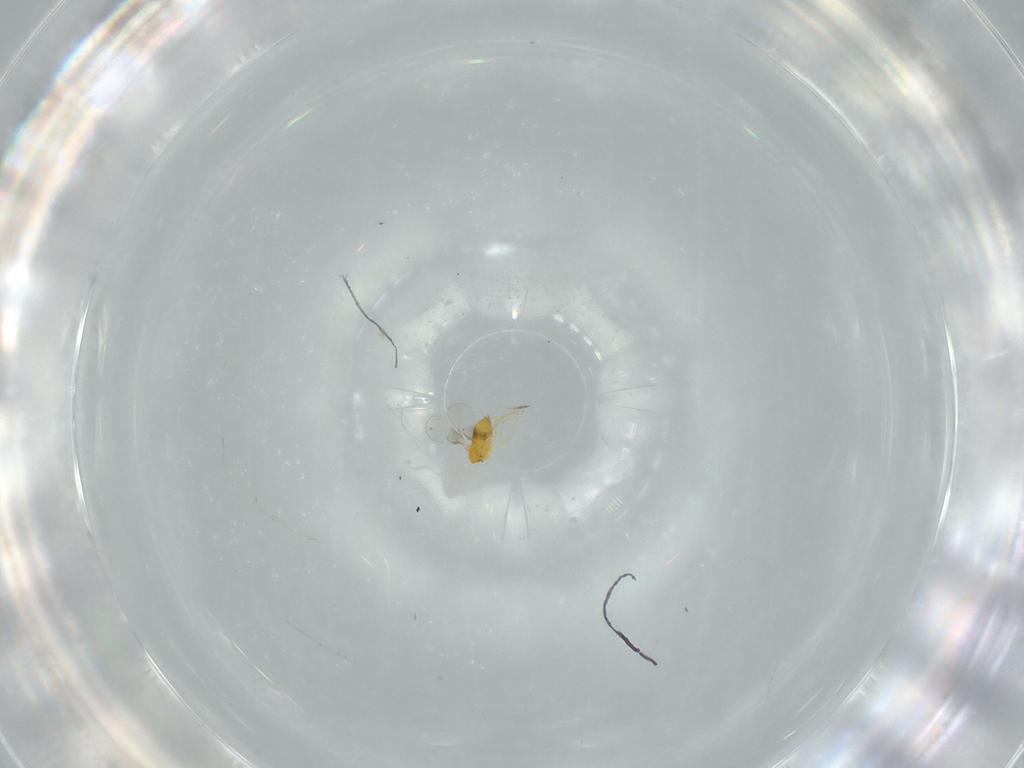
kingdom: Animalia
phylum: Arthropoda
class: Insecta
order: Hymenoptera
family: Trichogrammatidae
